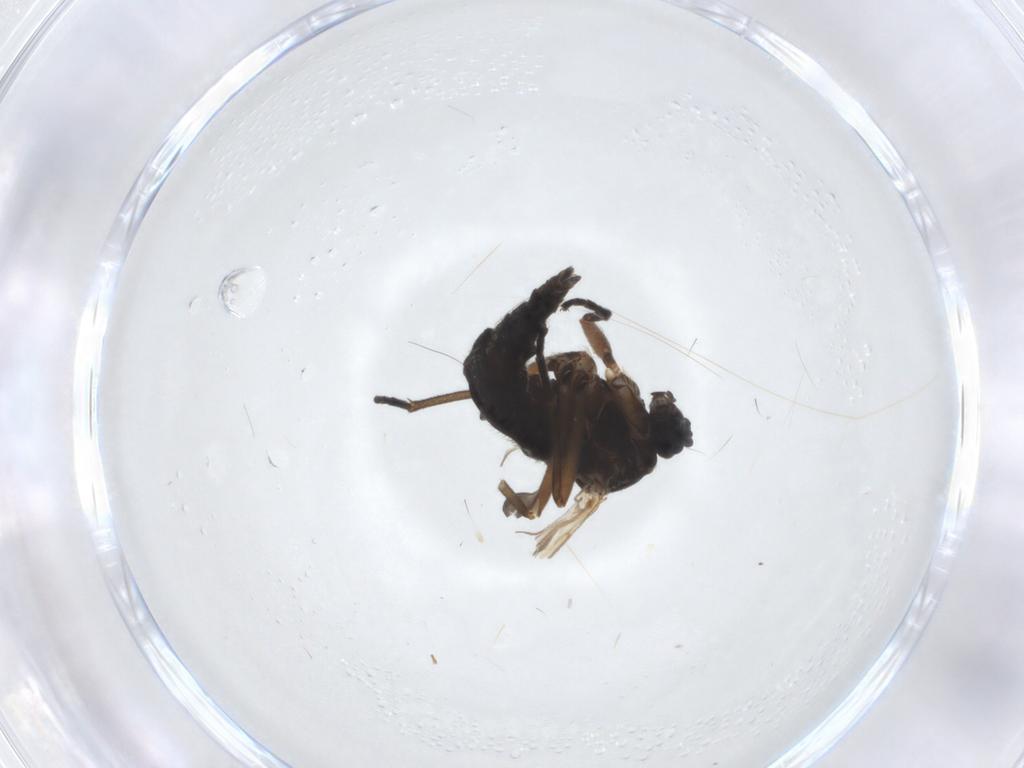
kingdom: Animalia
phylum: Arthropoda
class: Insecta
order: Diptera
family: Sciaridae
